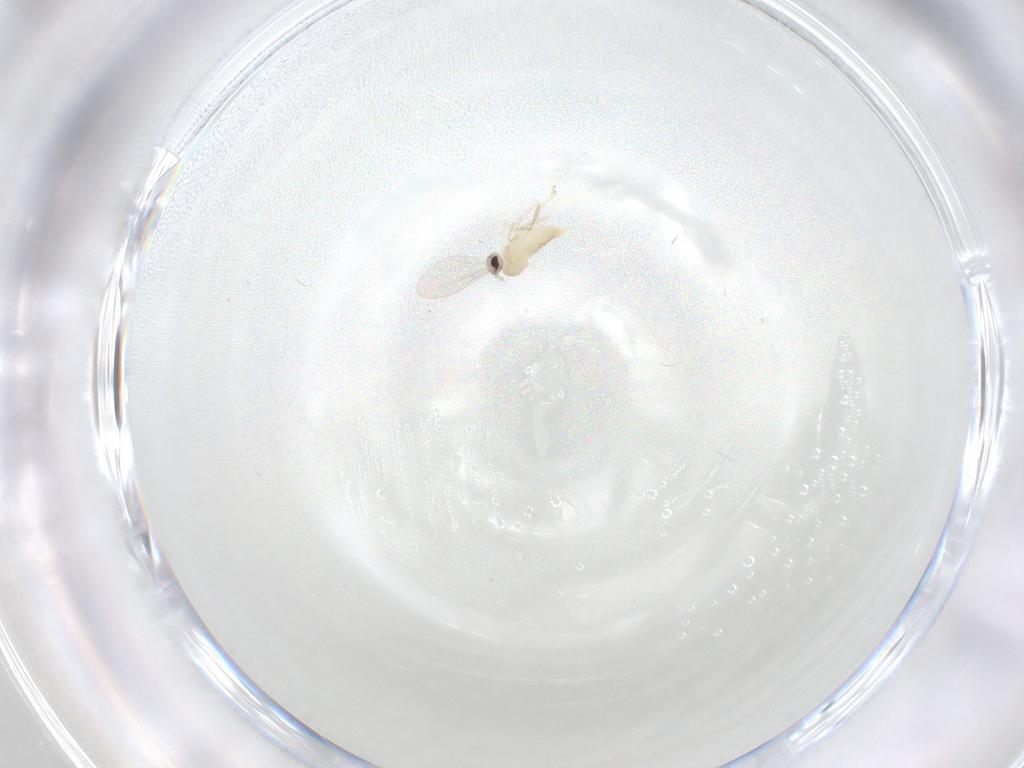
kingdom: Animalia
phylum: Arthropoda
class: Insecta
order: Diptera
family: Cecidomyiidae
